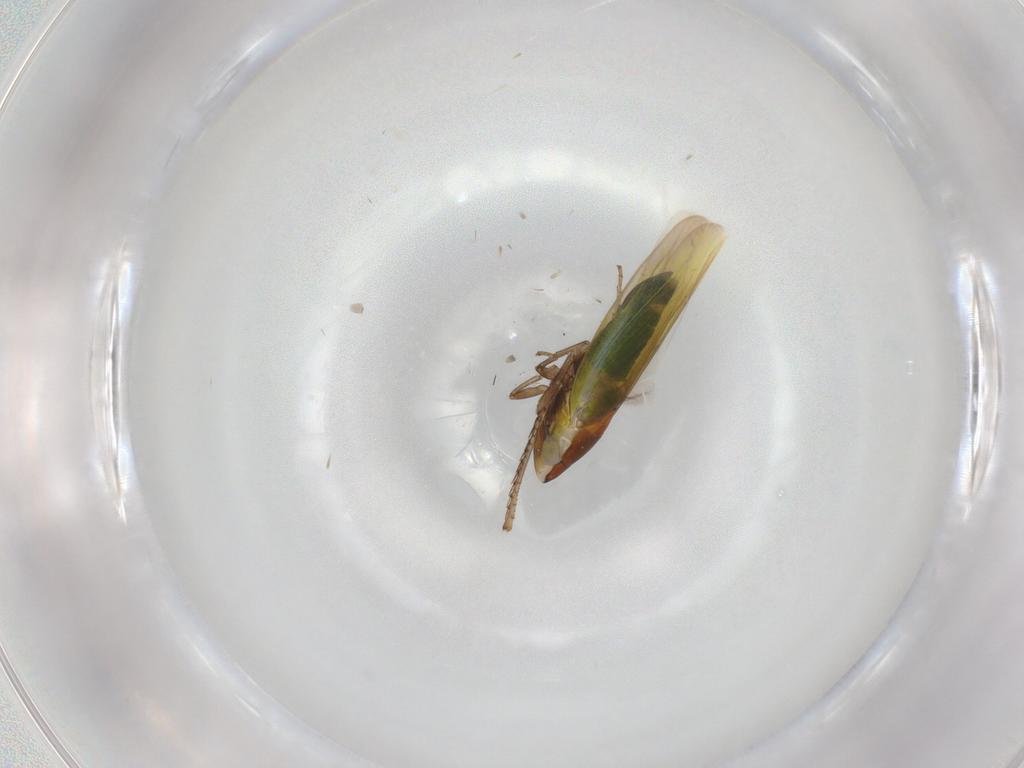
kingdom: Animalia
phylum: Arthropoda
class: Insecta
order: Hemiptera
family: Cicadellidae
